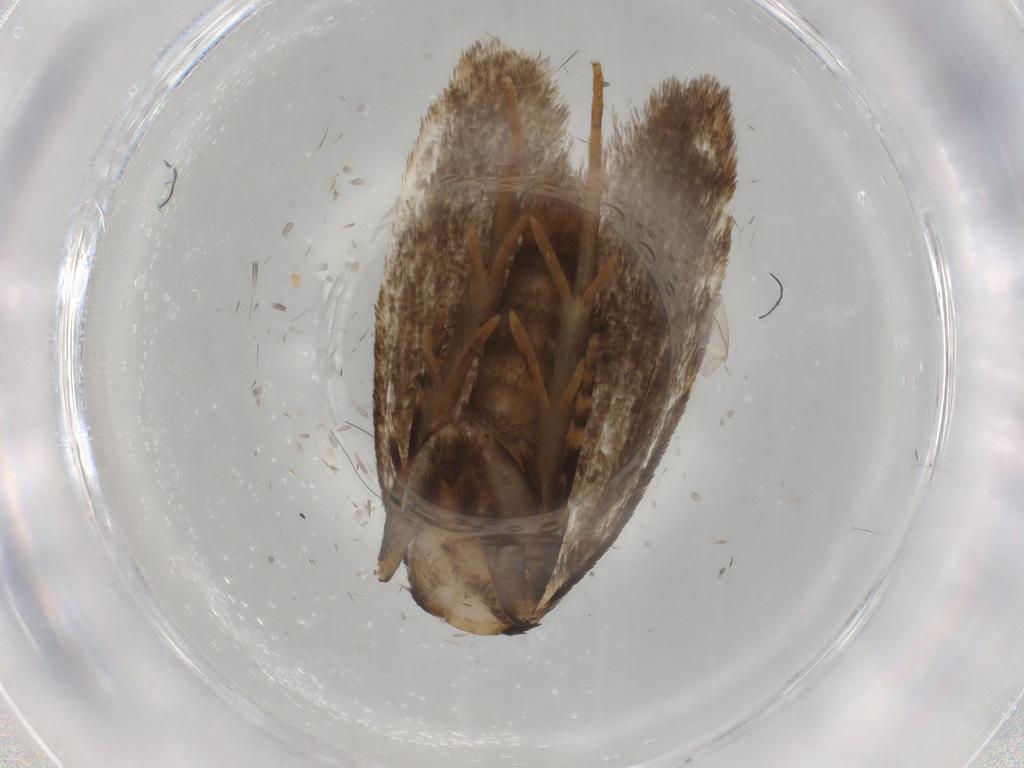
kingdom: Animalia
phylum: Arthropoda
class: Insecta
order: Lepidoptera
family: Tineidae
